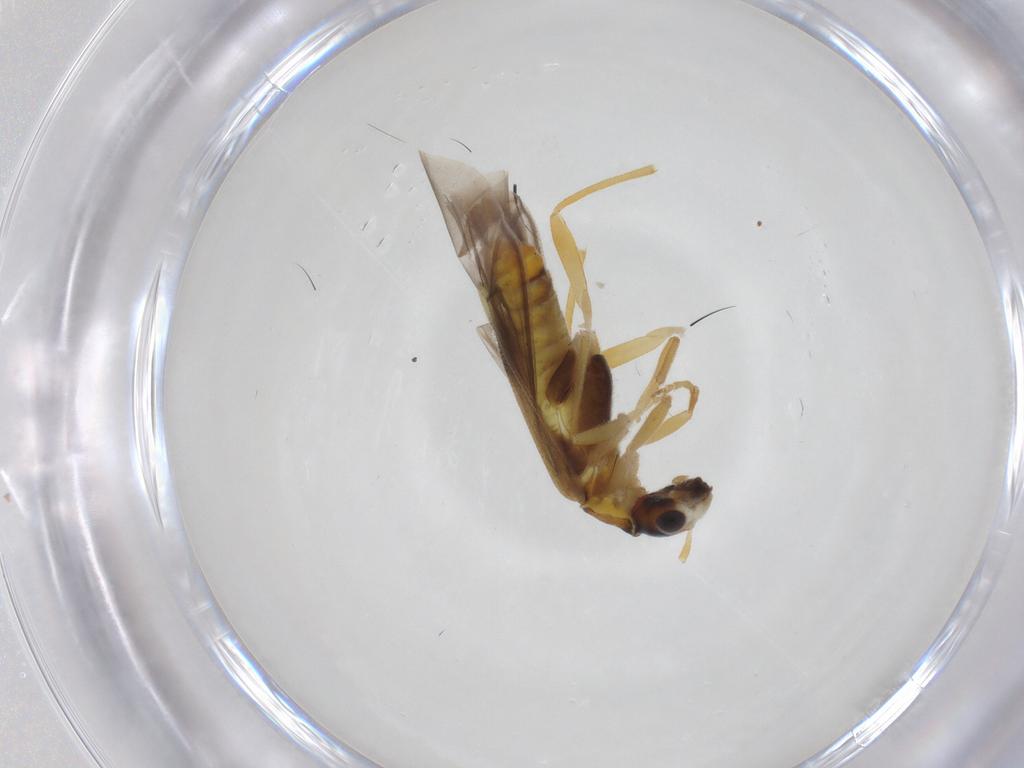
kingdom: Animalia
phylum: Arthropoda
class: Insecta
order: Coleoptera
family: Cantharidae
